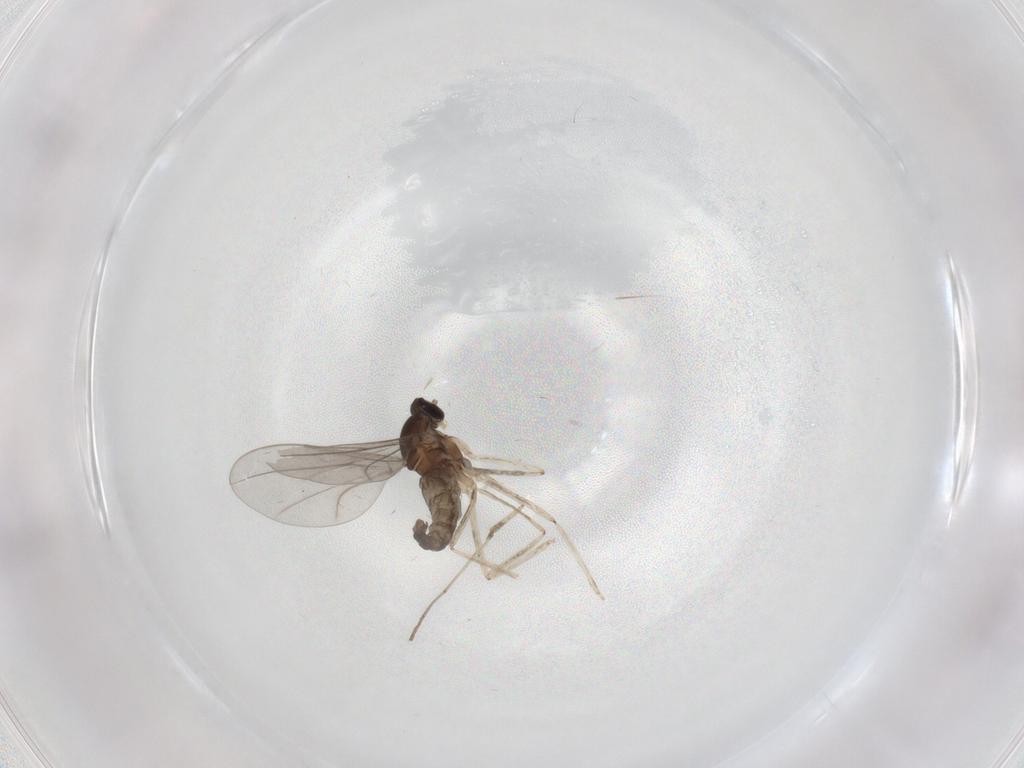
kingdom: Animalia
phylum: Arthropoda
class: Insecta
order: Diptera
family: Cecidomyiidae
